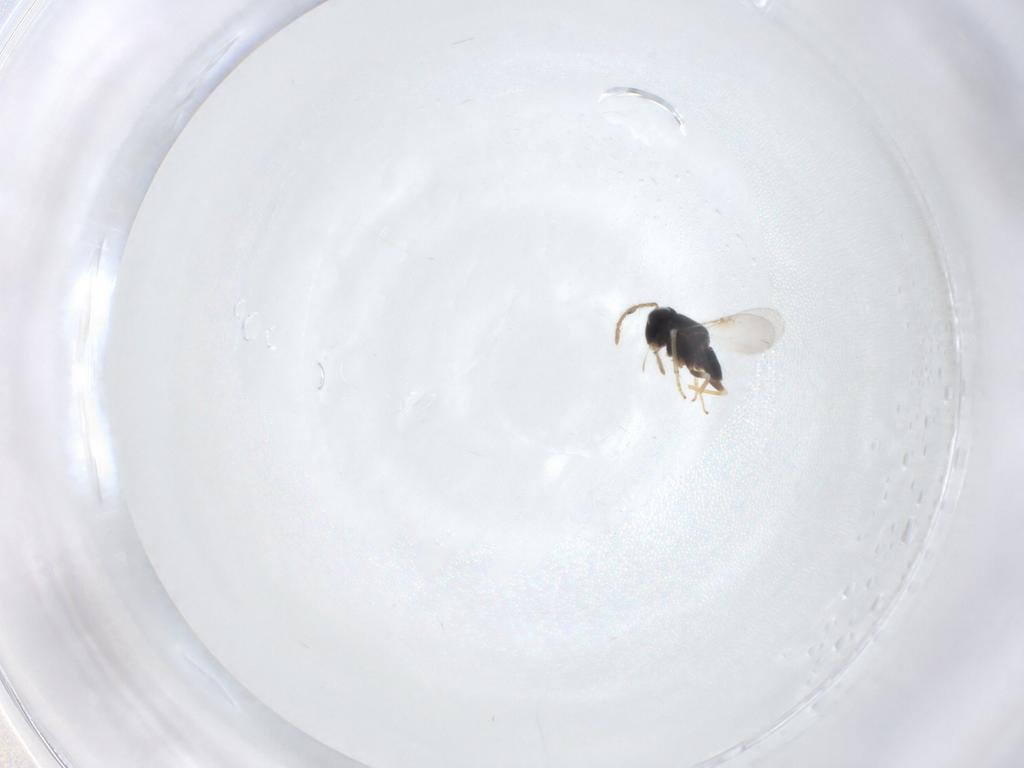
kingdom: Animalia
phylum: Arthropoda
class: Insecta
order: Hymenoptera
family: Encyrtidae
